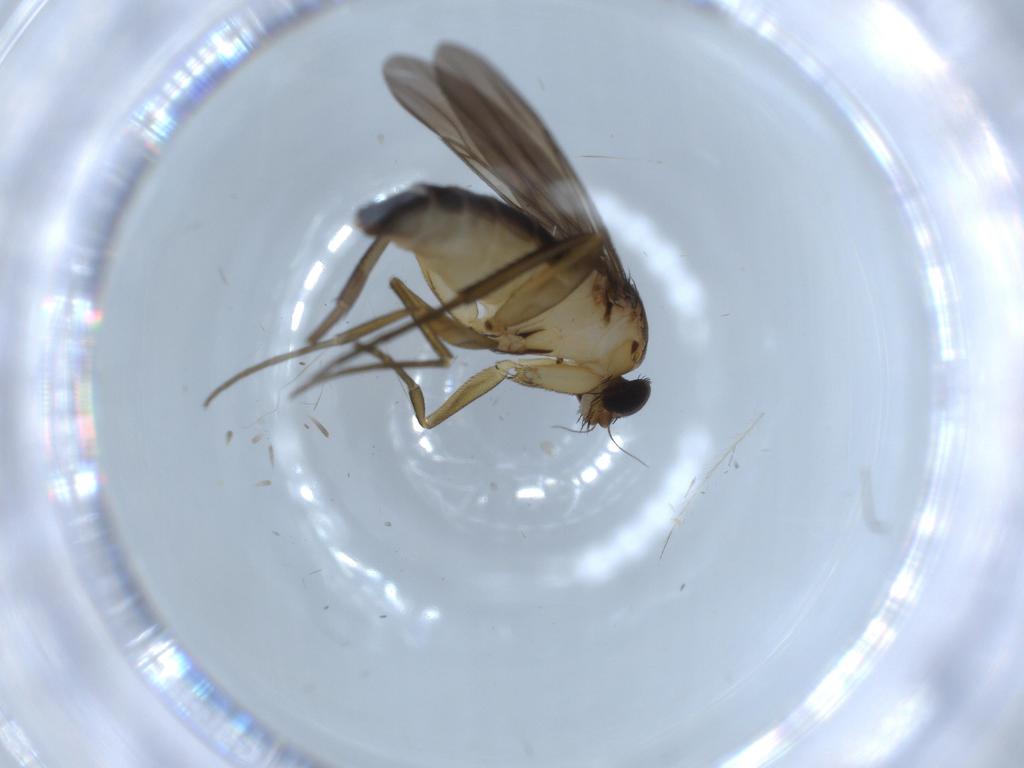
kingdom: Animalia
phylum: Arthropoda
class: Insecta
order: Diptera
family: Phoridae
